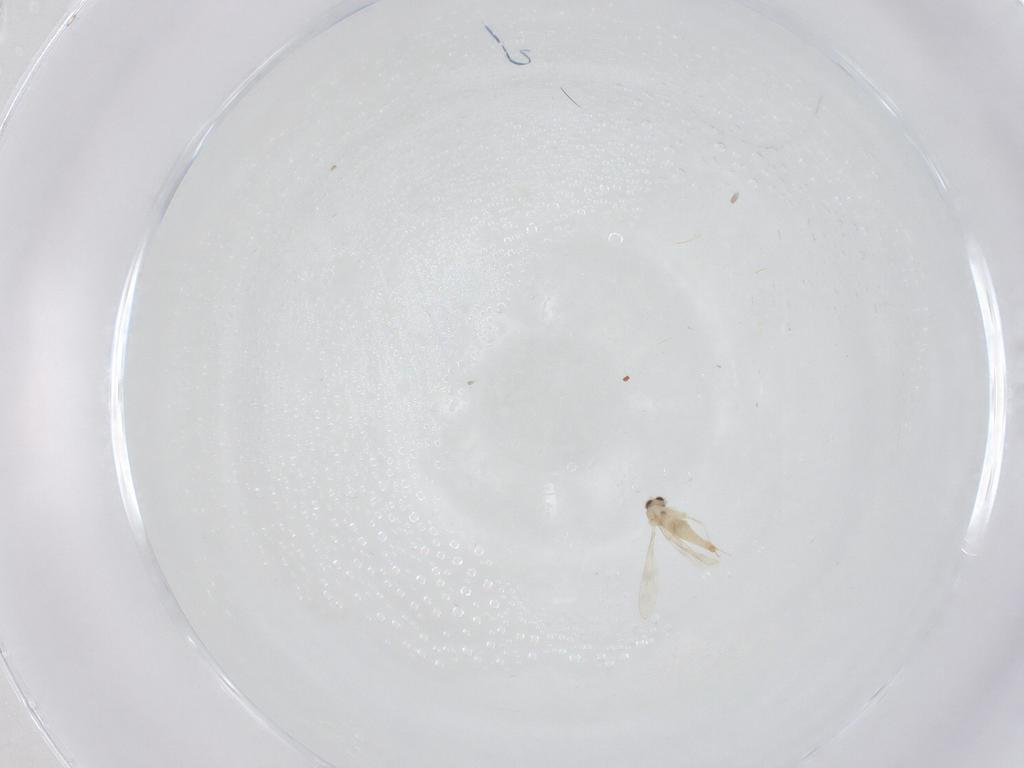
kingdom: Animalia
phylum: Arthropoda
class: Insecta
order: Diptera
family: Cecidomyiidae
